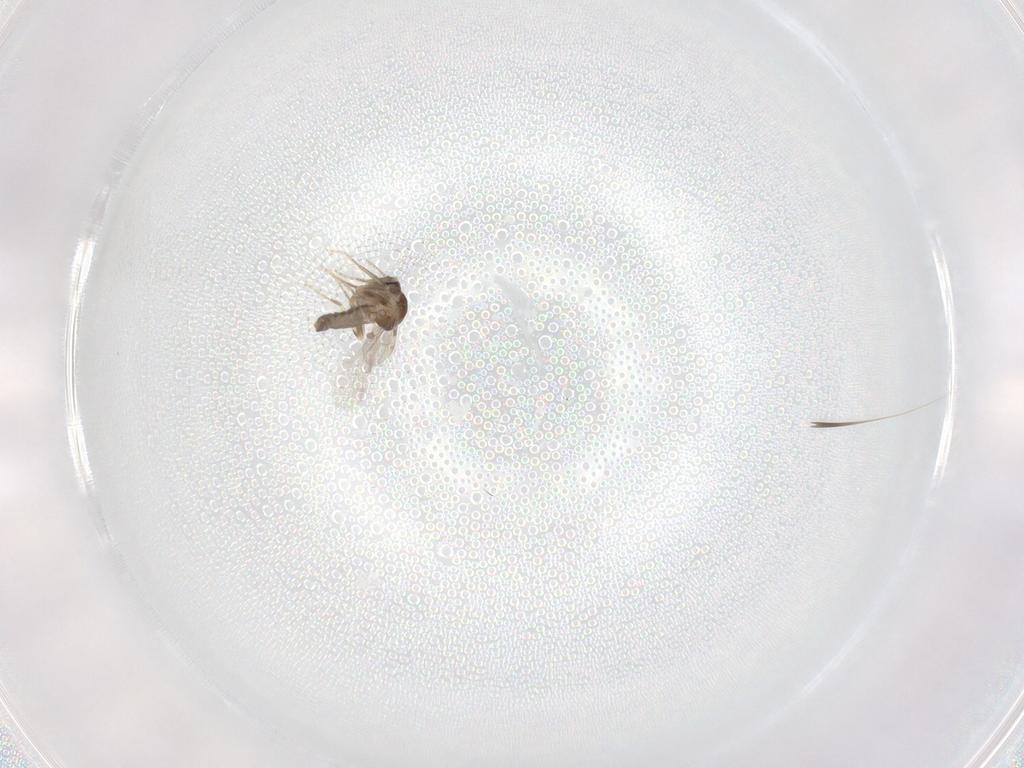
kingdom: Animalia
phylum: Arthropoda
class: Insecta
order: Diptera
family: Ceratopogonidae
